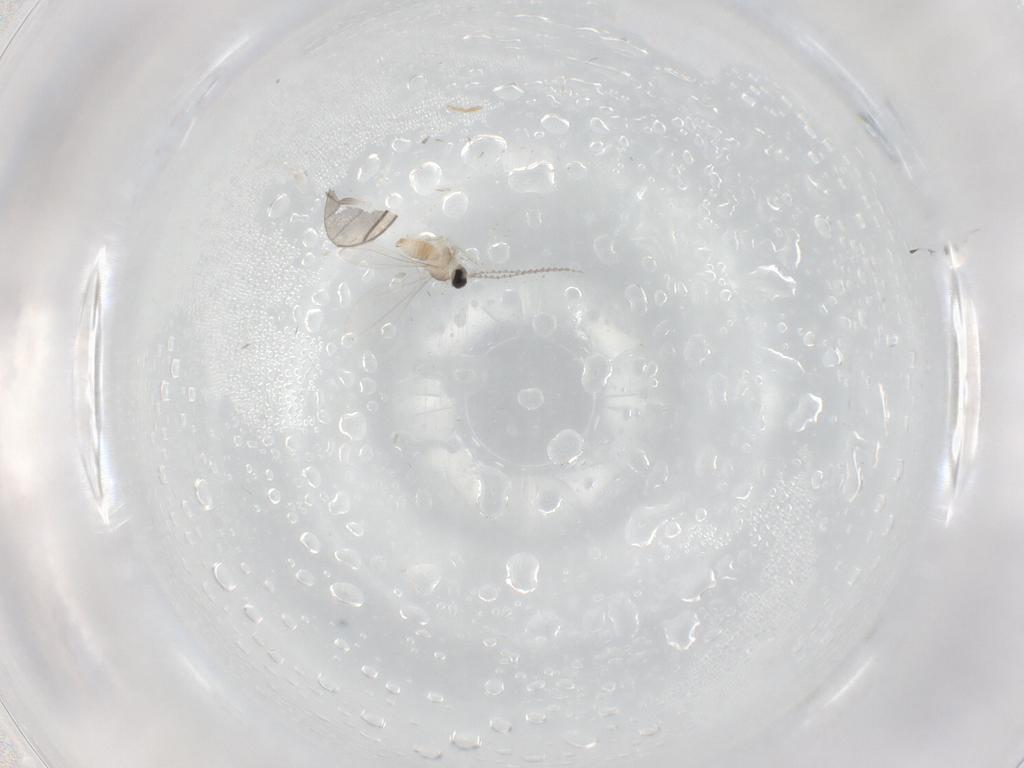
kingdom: Animalia
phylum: Arthropoda
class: Insecta
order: Diptera
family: Cecidomyiidae
